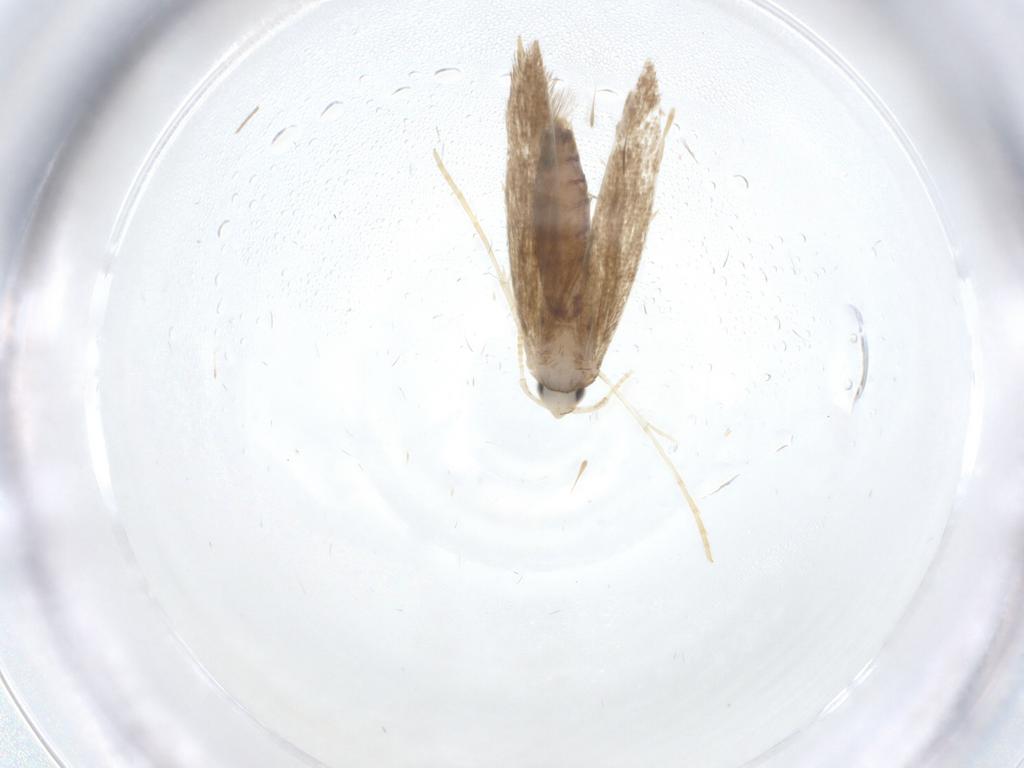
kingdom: Animalia
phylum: Arthropoda
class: Insecta
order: Lepidoptera
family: Lyonetiidae
